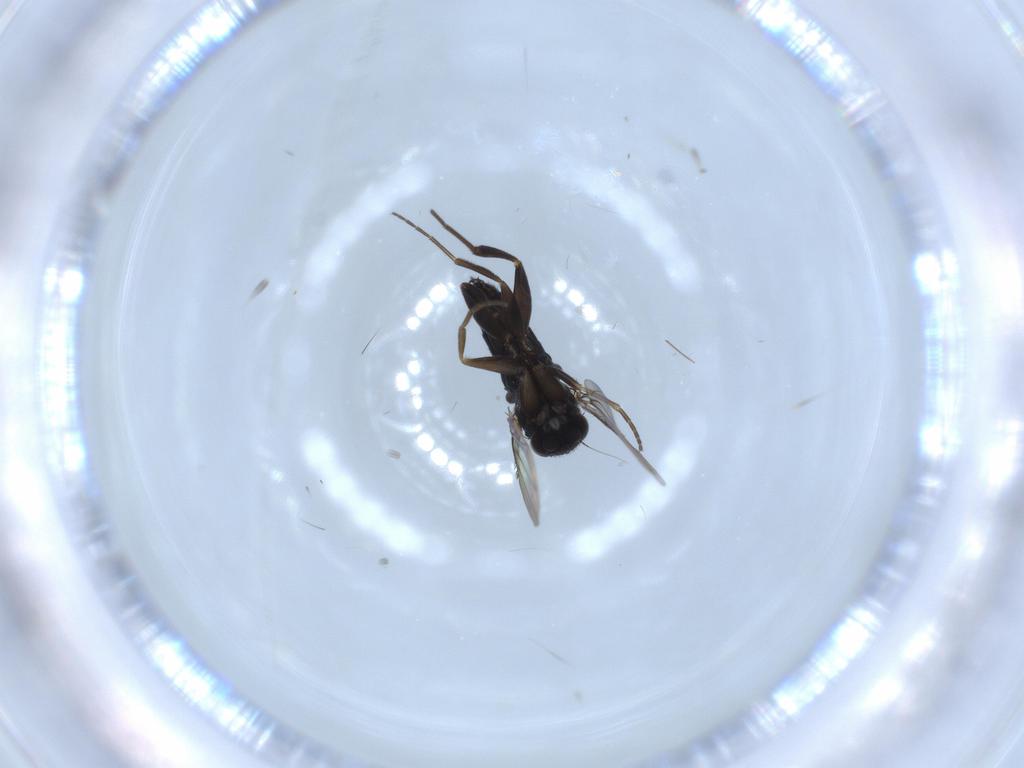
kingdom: Animalia
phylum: Arthropoda
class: Insecta
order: Diptera
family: Chironomidae
